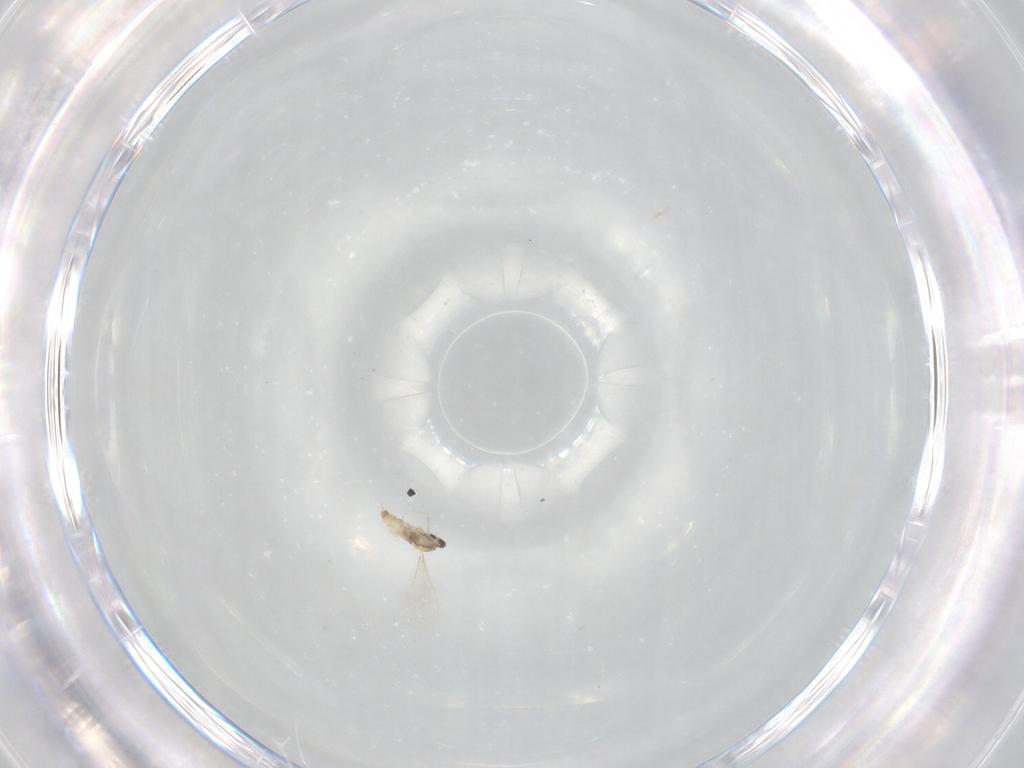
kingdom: Animalia
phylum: Arthropoda
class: Insecta
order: Diptera
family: Cecidomyiidae
